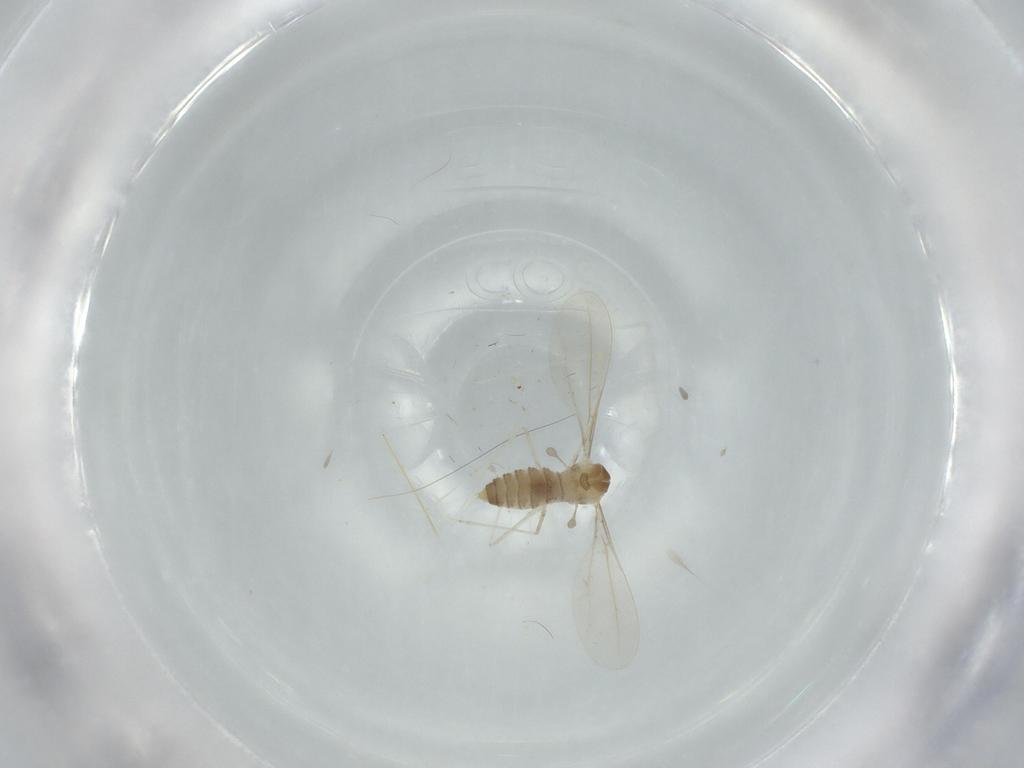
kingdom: Animalia
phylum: Arthropoda
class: Insecta
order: Diptera
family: Cecidomyiidae
